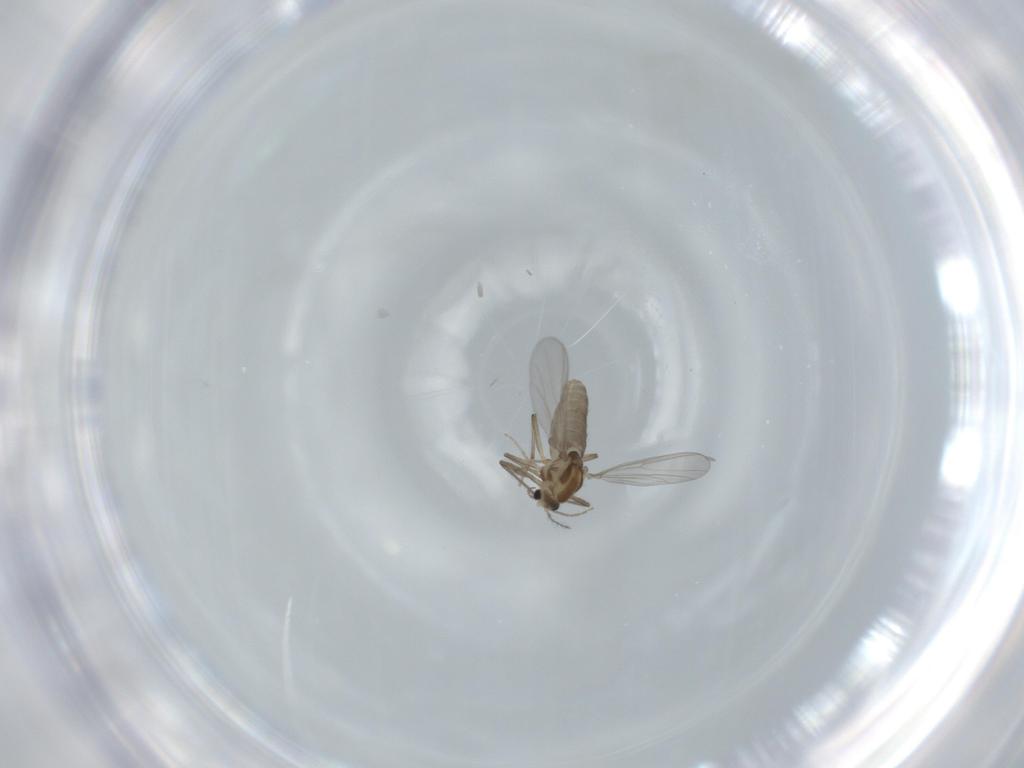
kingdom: Animalia
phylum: Arthropoda
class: Insecta
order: Diptera
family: Chironomidae
